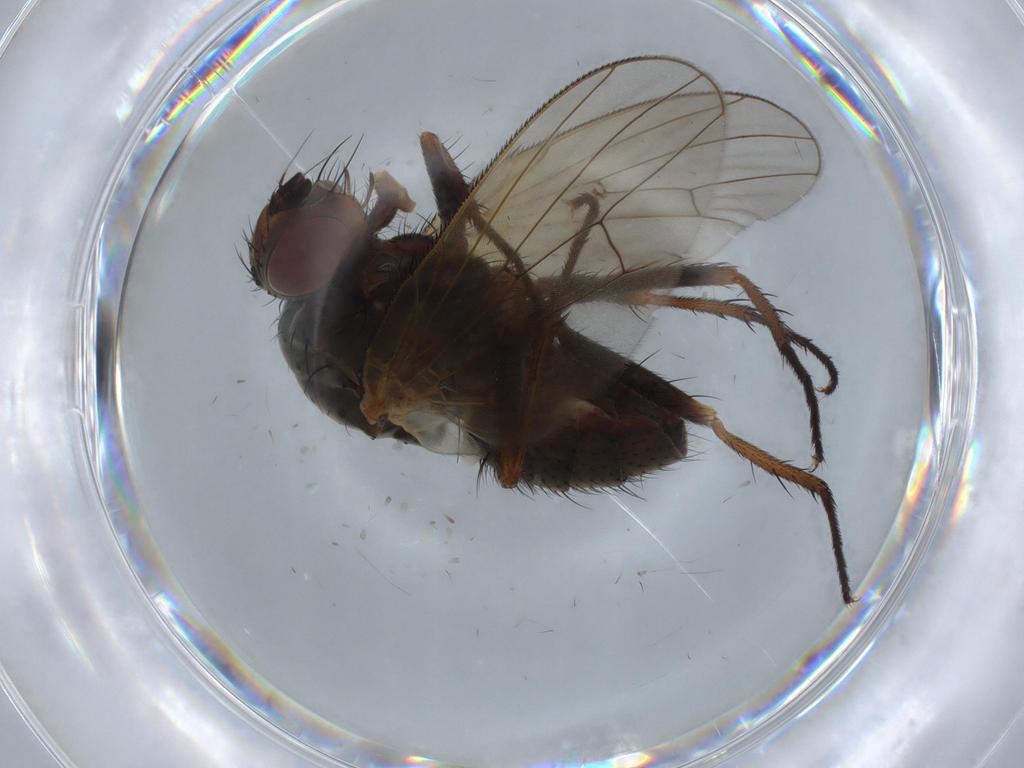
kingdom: Animalia
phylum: Arthropoda
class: Insecta
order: Diptera
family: Anthomyiidae
